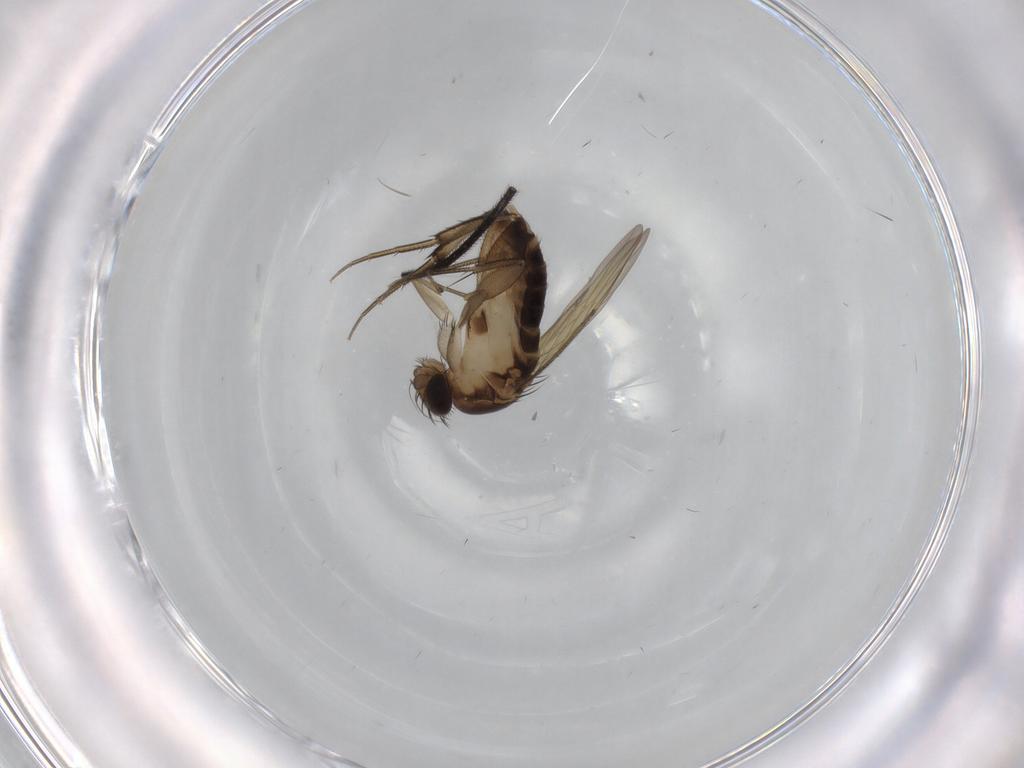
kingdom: Animalia
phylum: Arthropoda
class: Insecta
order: Diptera
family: Phoridae
